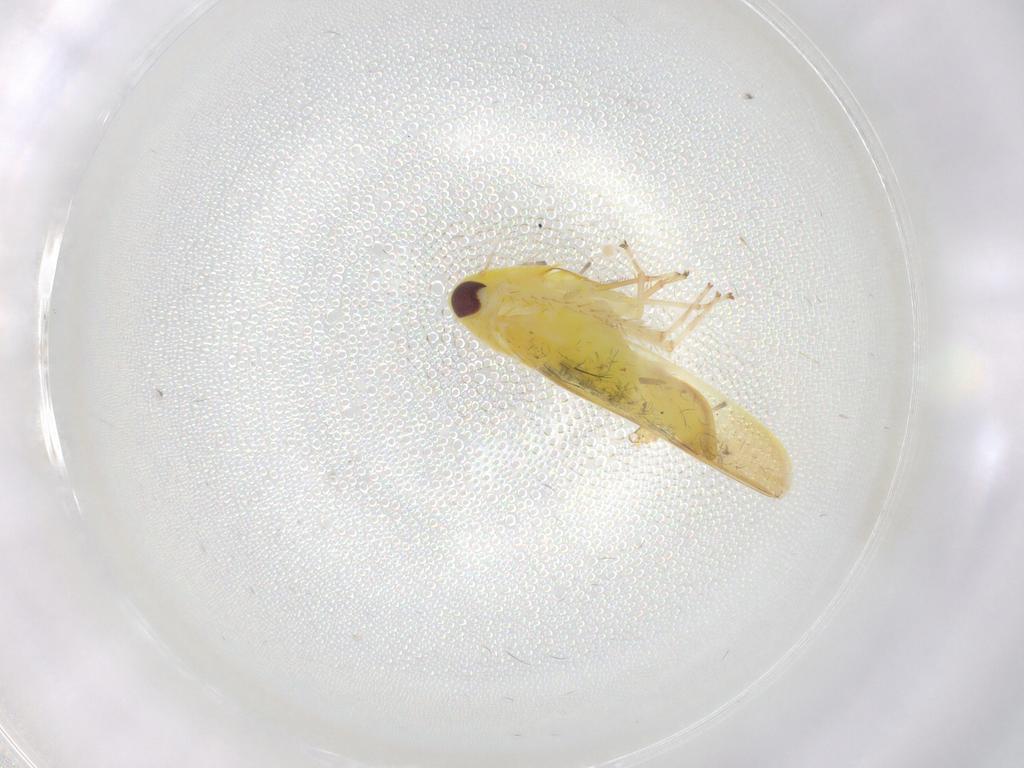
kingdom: Animalia
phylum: Arthropoda
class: Insecta
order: Hemiptera
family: Cicadellidae
